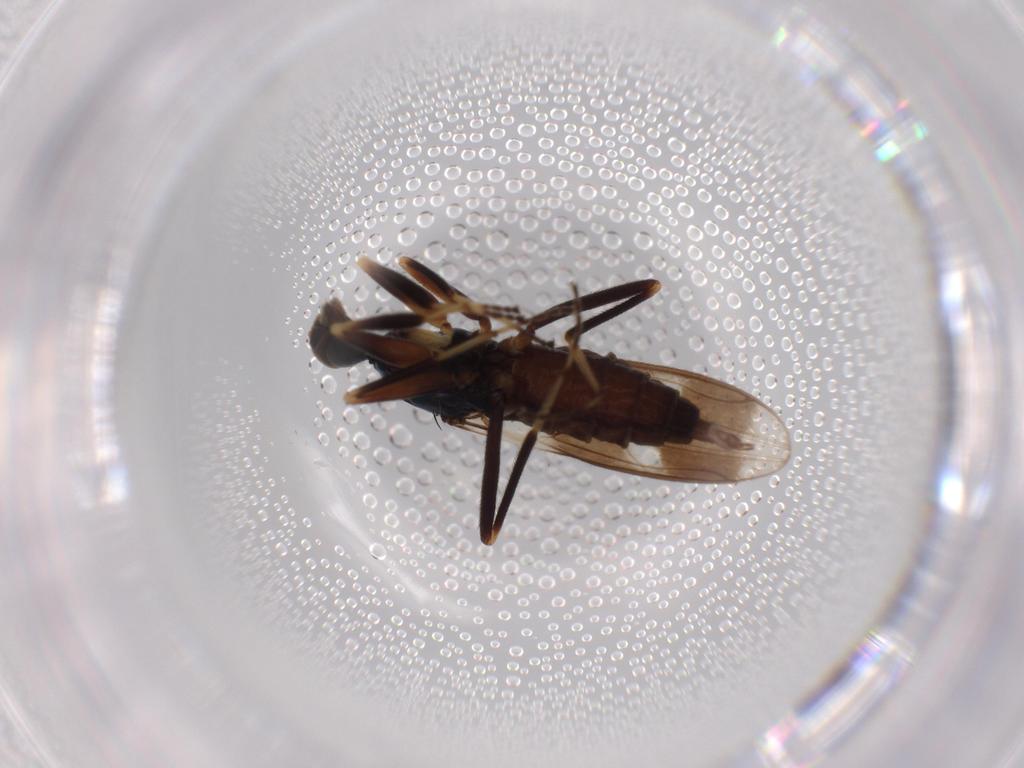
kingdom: Animalia
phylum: Arthropoda
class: Insecta
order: Diptera
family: Hybotidae
